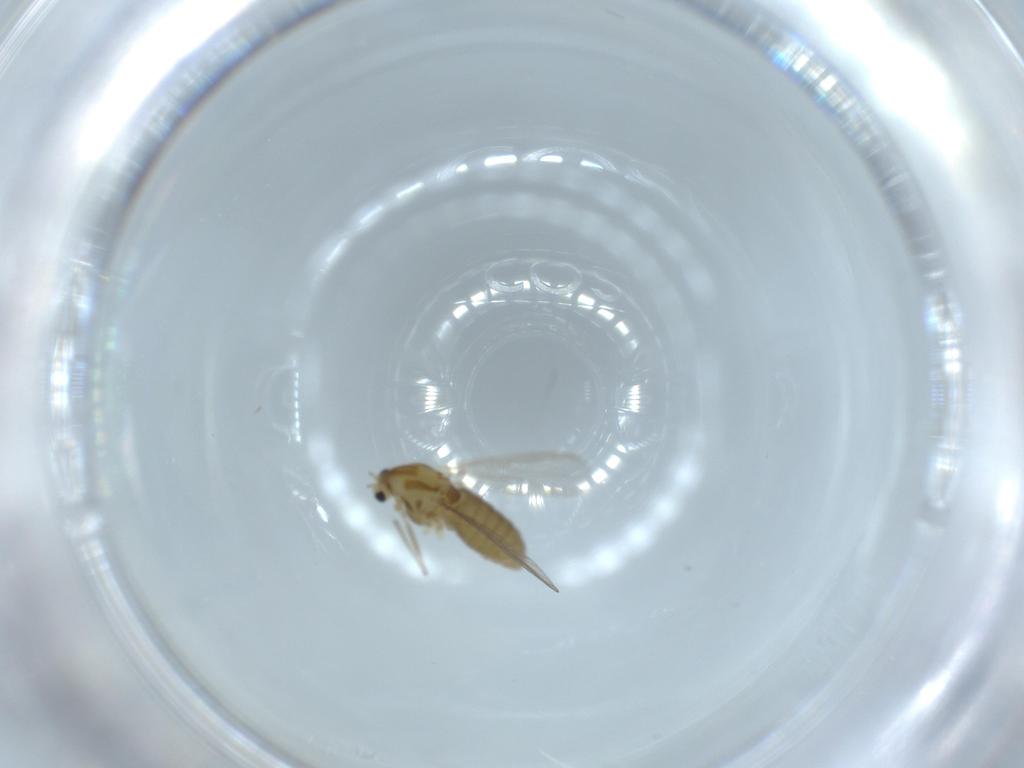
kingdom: Animalia
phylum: Arthropoda
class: Insecta
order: Diptera
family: Chironomidae
